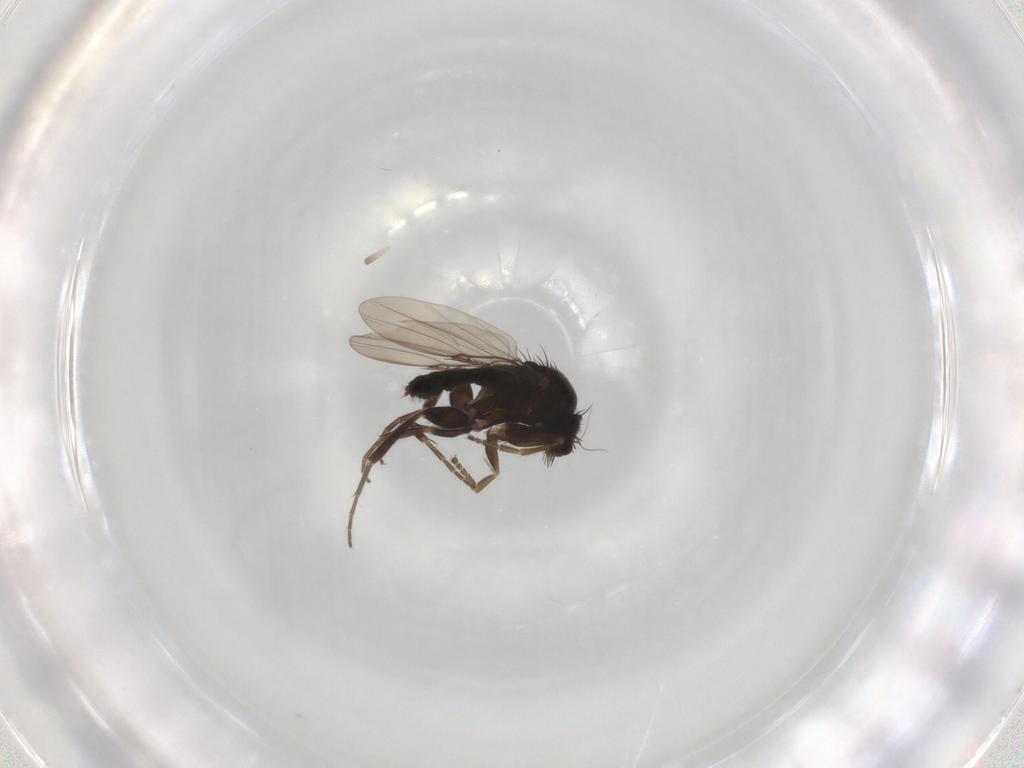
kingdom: Animalia
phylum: Arthropoda
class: Insecta
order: Diptera
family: Phoridae
